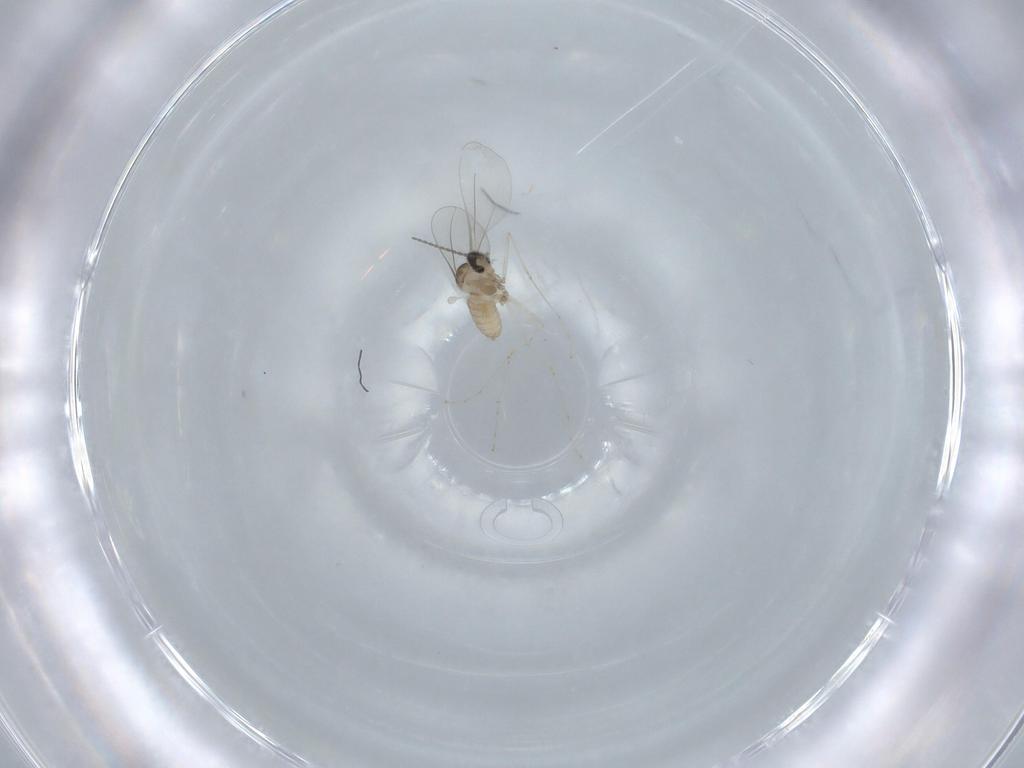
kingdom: Animalia
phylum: Arthropoda
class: Insecta
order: Diptera
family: Cecidomyiidae
